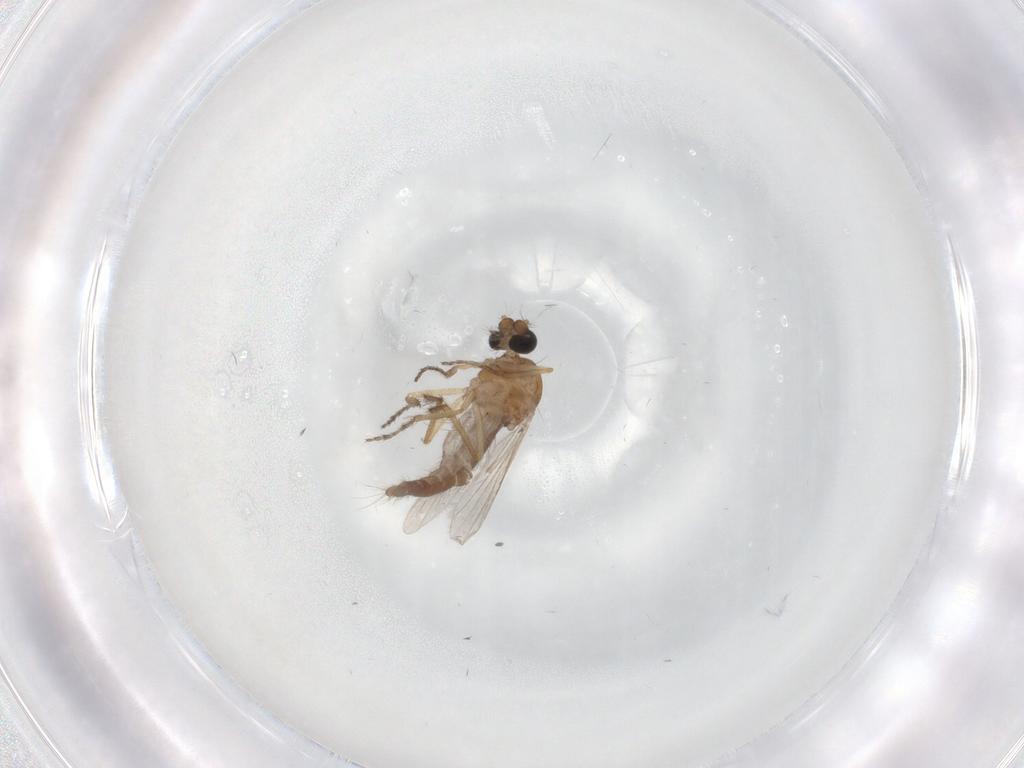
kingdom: Animalia
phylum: Arthropoda
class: Insecta
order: Diptera
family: Ceratopogonidae
